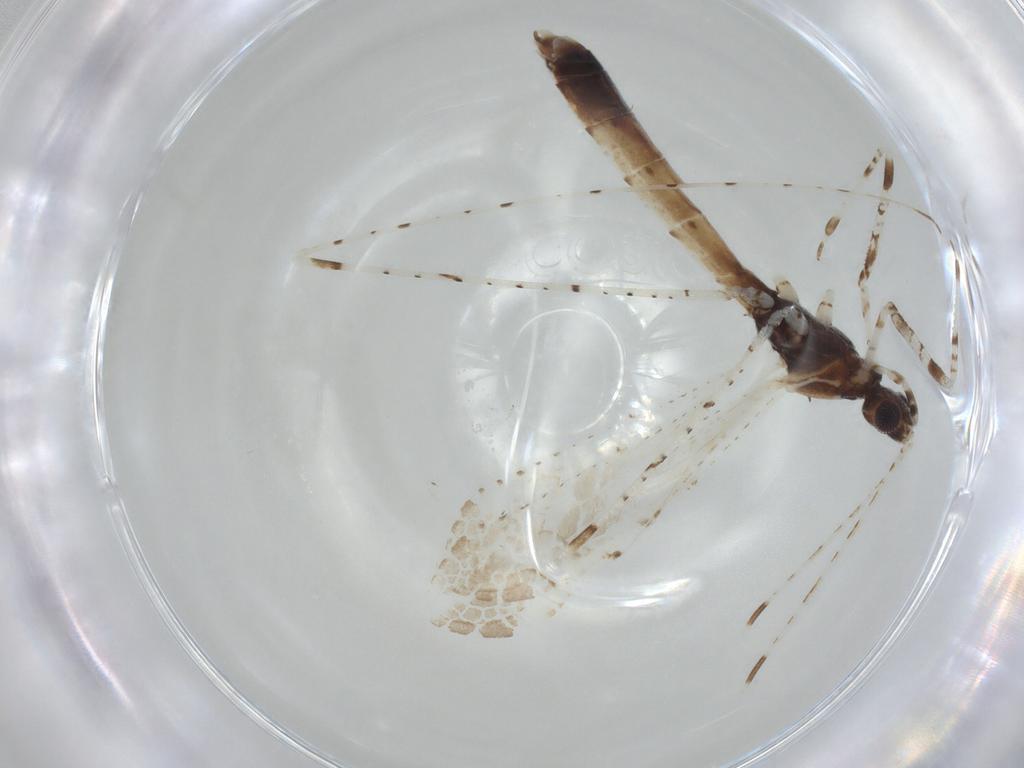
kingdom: Animalia
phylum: Arthropoda
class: Insecta
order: Hemiptera
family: Reduviidae
